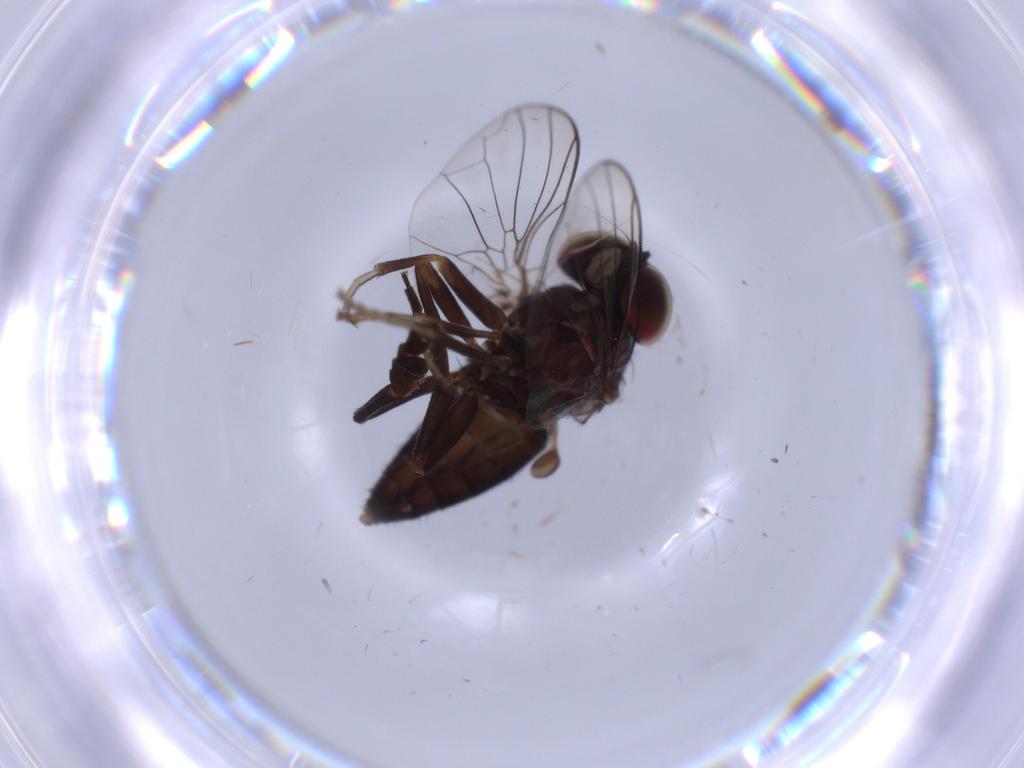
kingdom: Animalia
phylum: Arthropoda
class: Insecta
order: Diptera
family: Platypezidae
